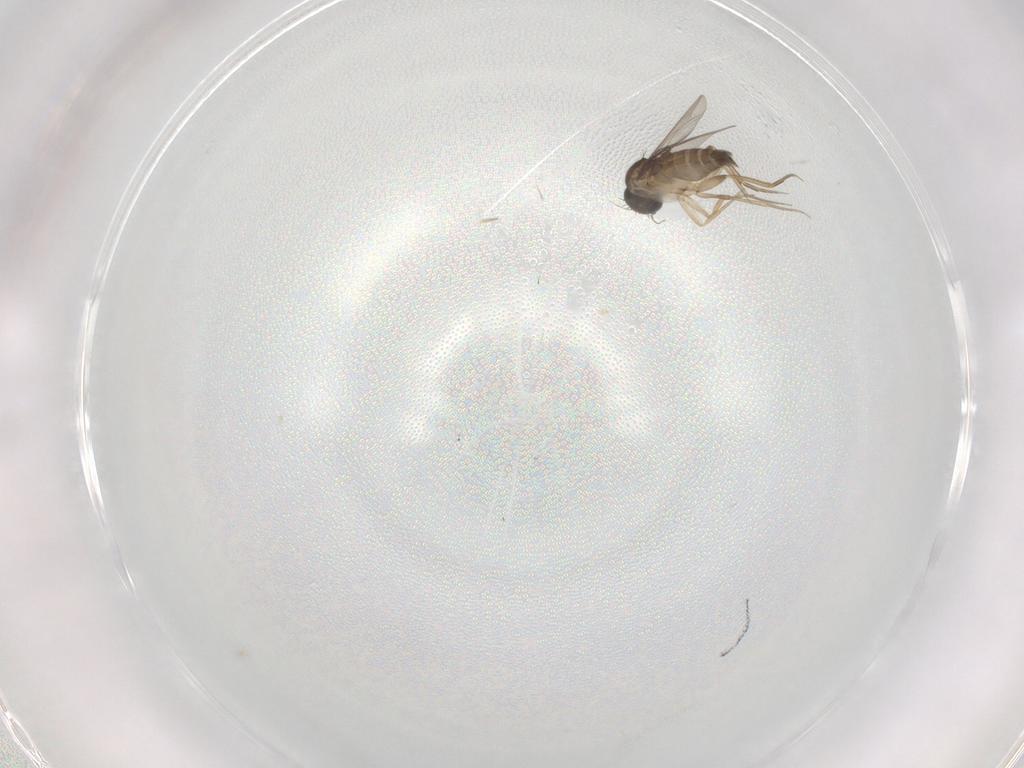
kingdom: Animalia
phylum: Arthropoda
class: Insecta
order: Diptera
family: Phoridae
